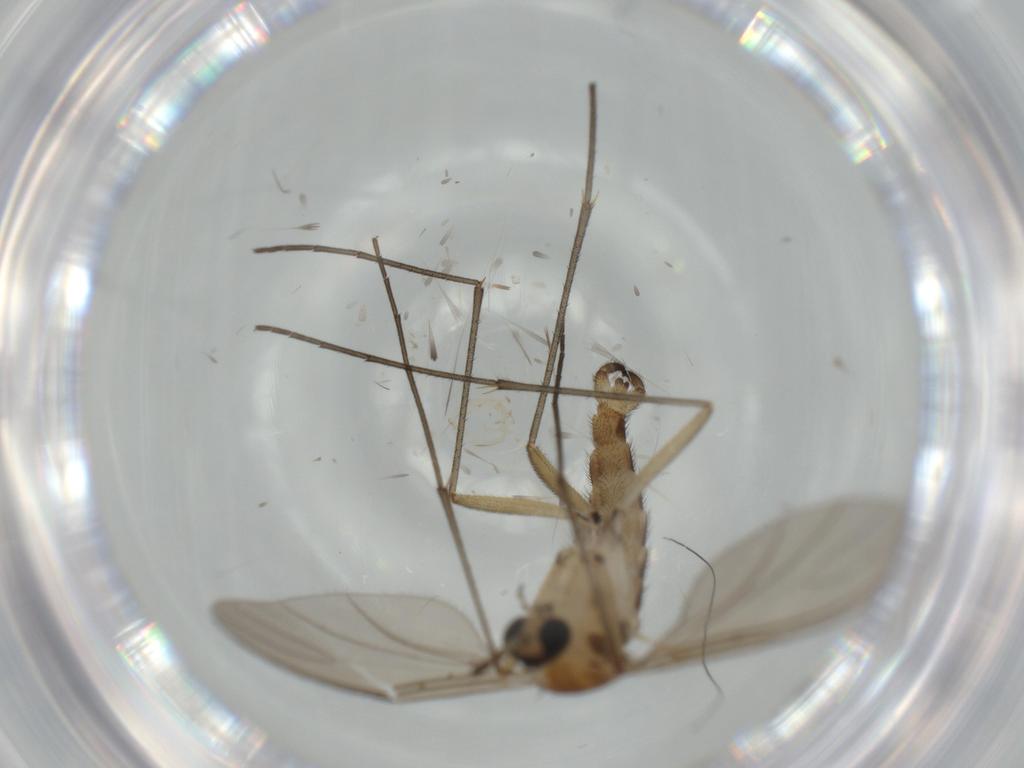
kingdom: Animalia
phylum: Arthropoda
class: Insecta
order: Diptera
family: Sciaridae
